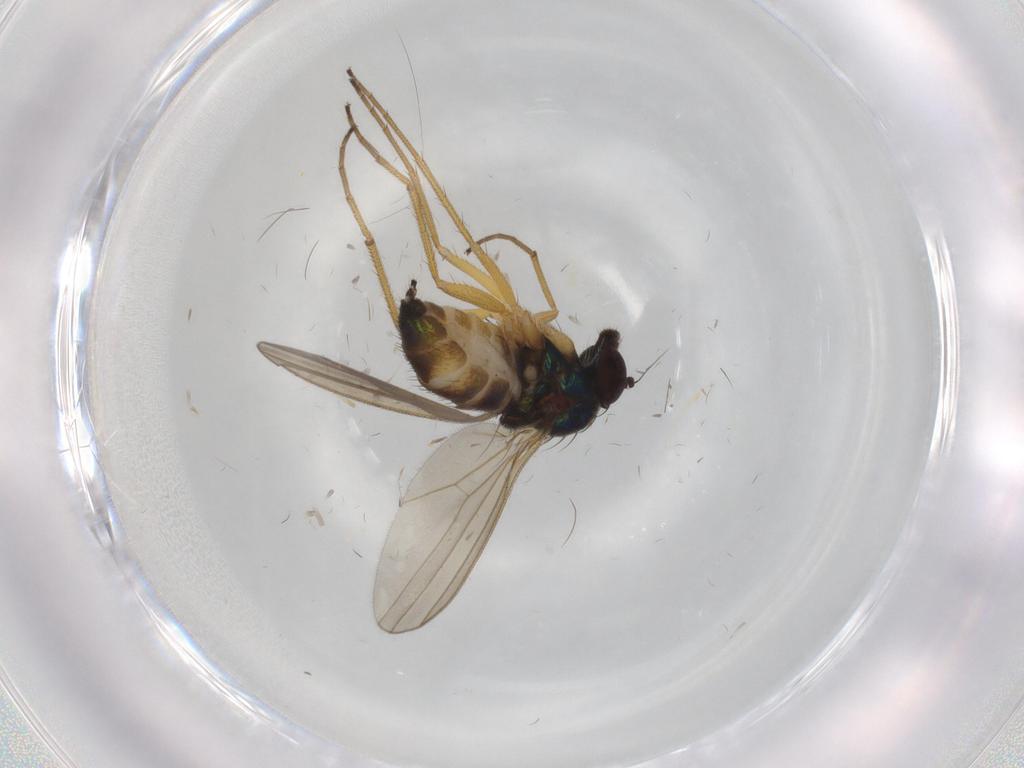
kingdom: Animalia
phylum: Arthropoda
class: Insecta
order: Diptera
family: Dolichopodidae
